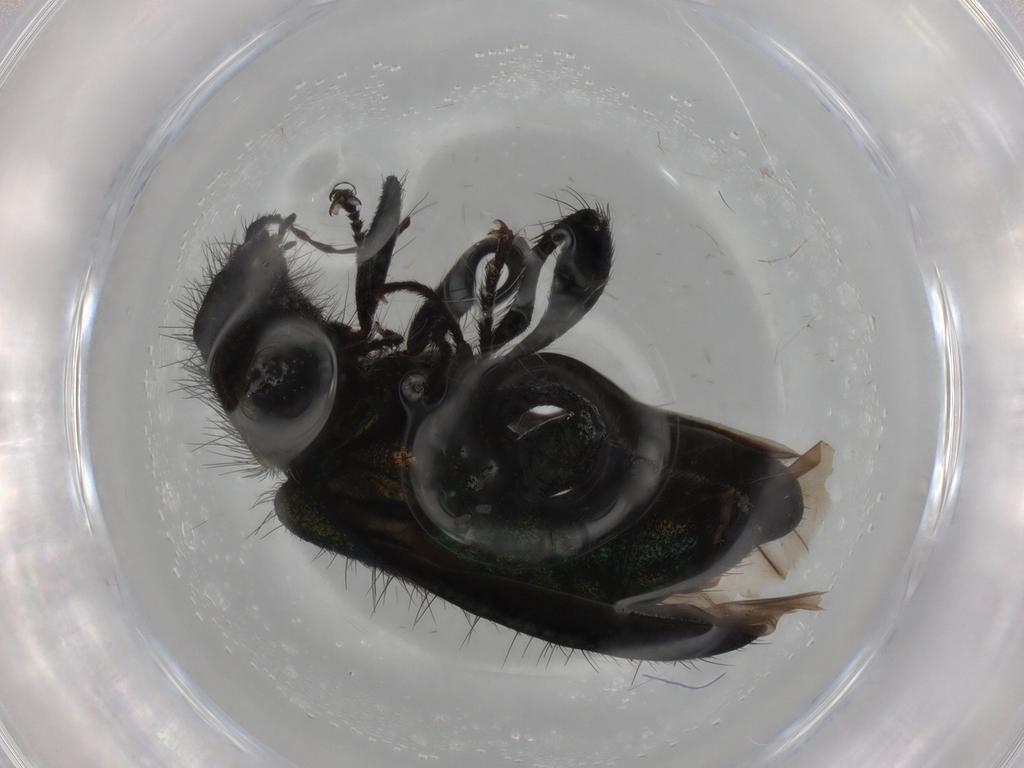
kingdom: Animalia
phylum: Arthropoda
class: Insecta
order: Coleoptera
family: Melyridae
